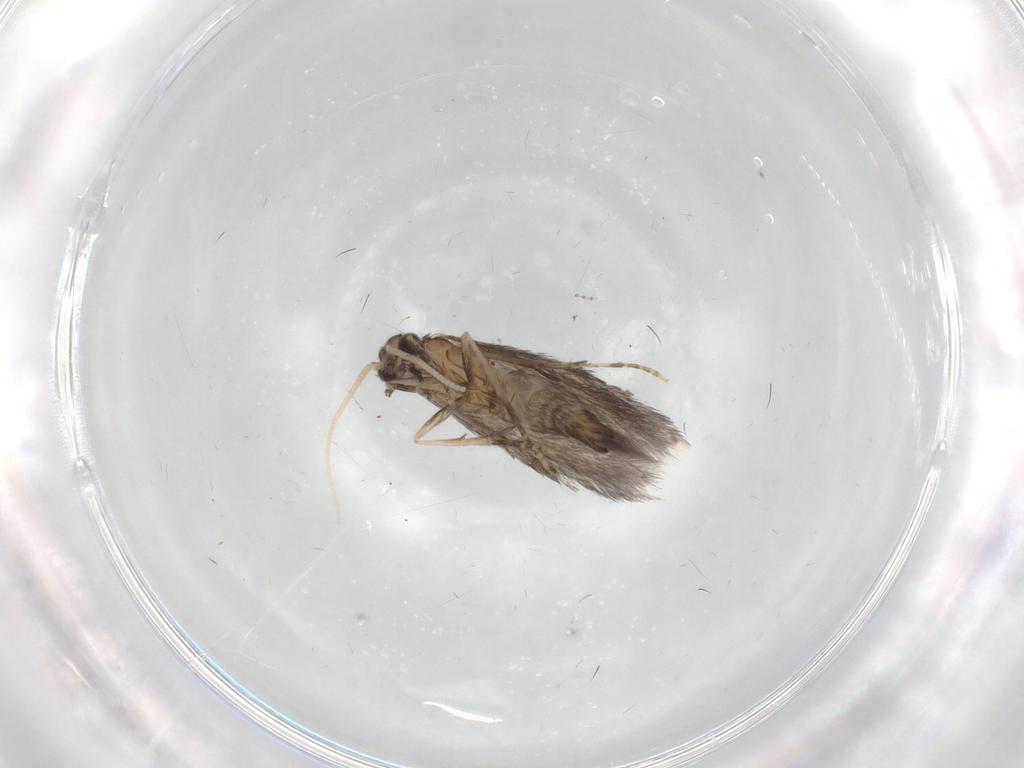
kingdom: Animalia
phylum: Arthropoda
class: Insecta
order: Trichoptera
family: Hydroptilidae
